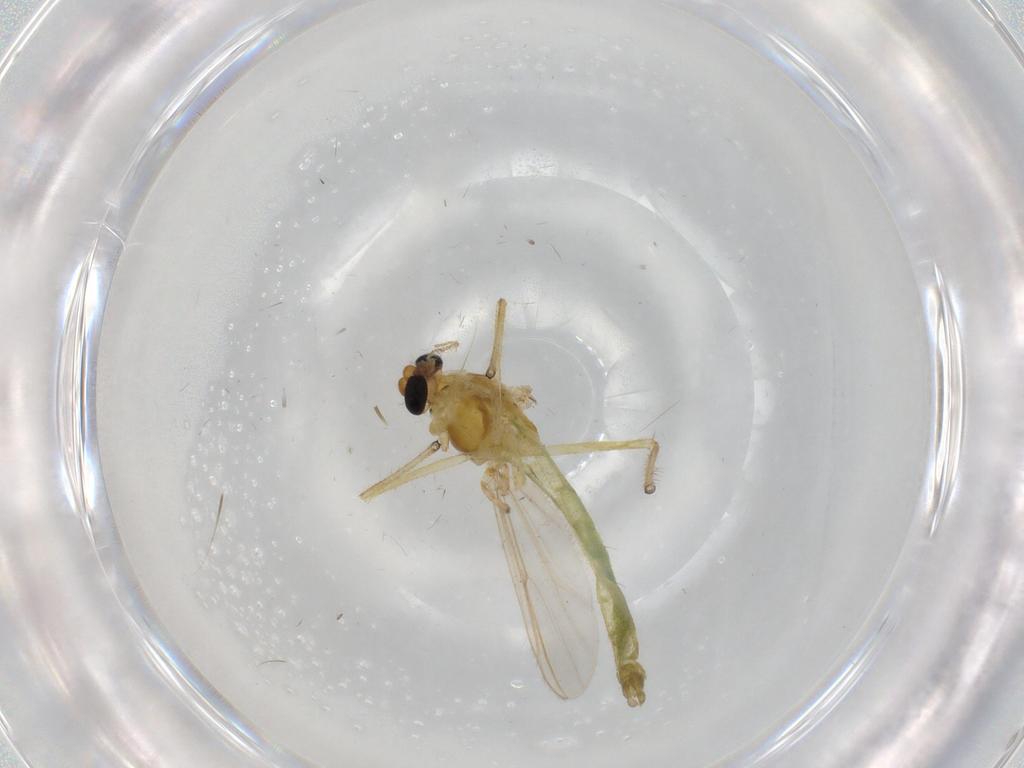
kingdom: Animalia
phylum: Arthropoda
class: Insecta
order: Diptera
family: Chironomidae
